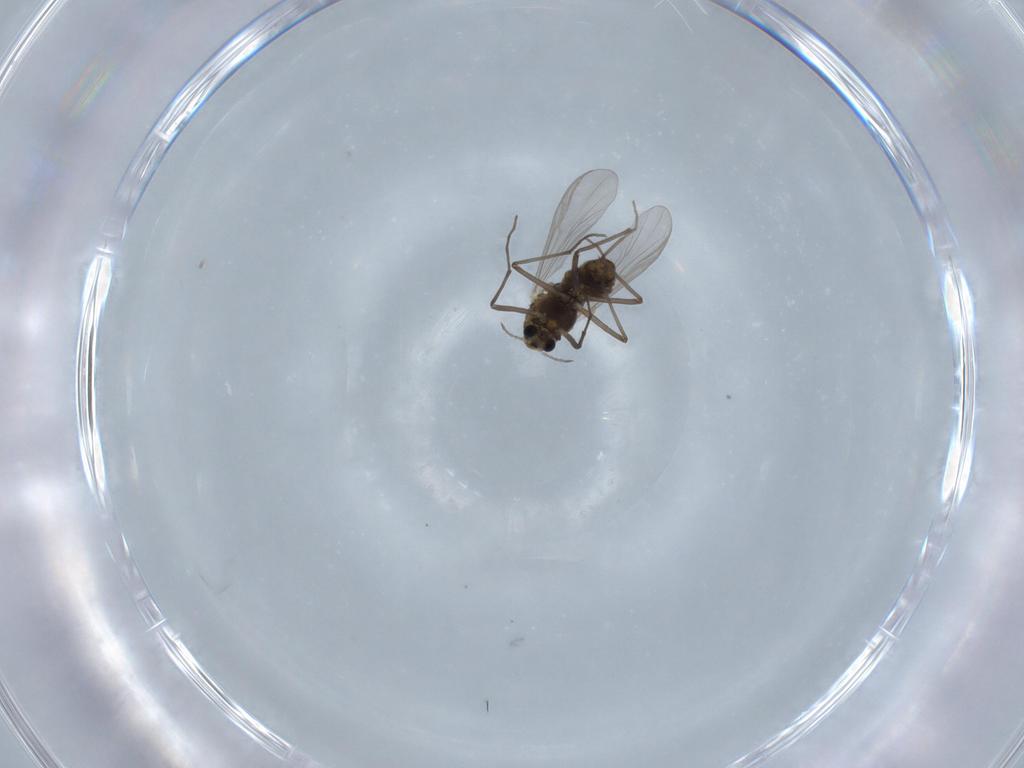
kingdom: Animalia
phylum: Arthropoda
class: Insecta
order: Diptera
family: Chironomidae
